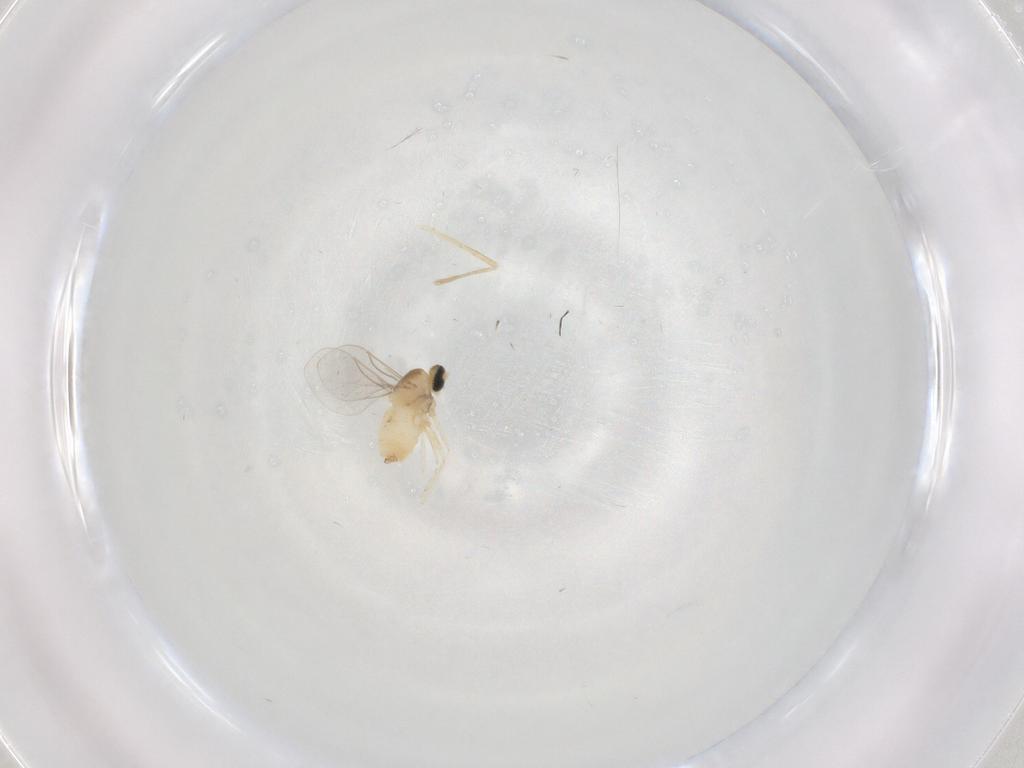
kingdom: Animalia
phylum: Arthropoda
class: Insecta
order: Diptera
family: Cecidomyiidae
